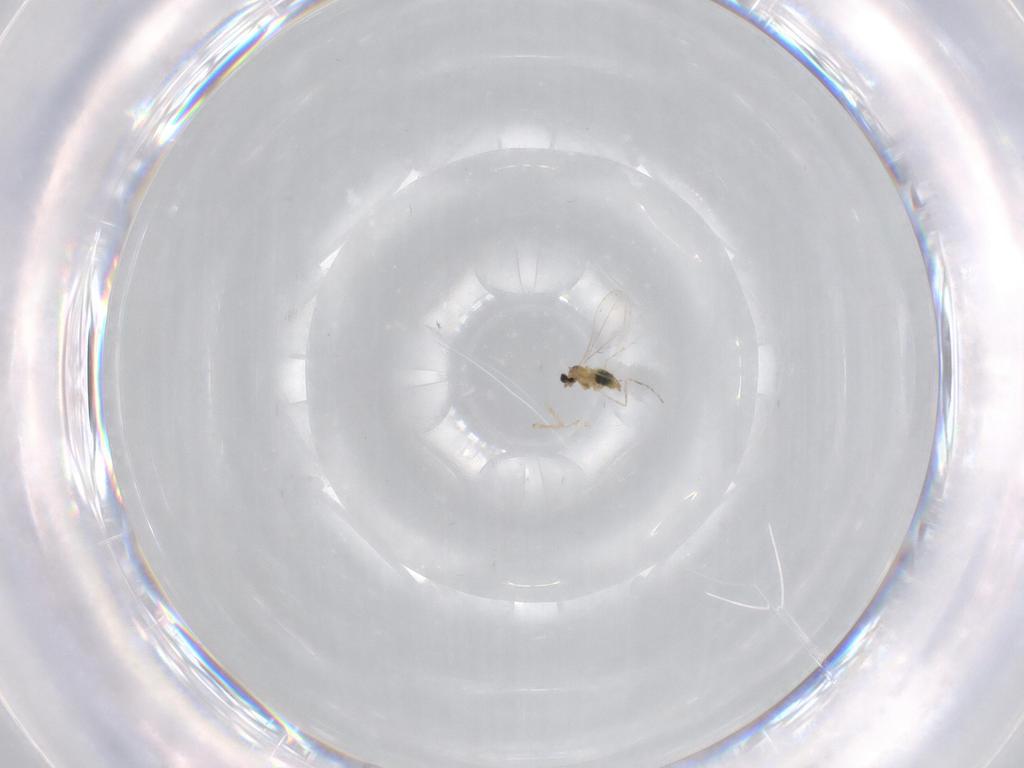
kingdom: Animalia
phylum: Arthropoda
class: Insecta
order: Diptera
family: Cecidomyiidae
